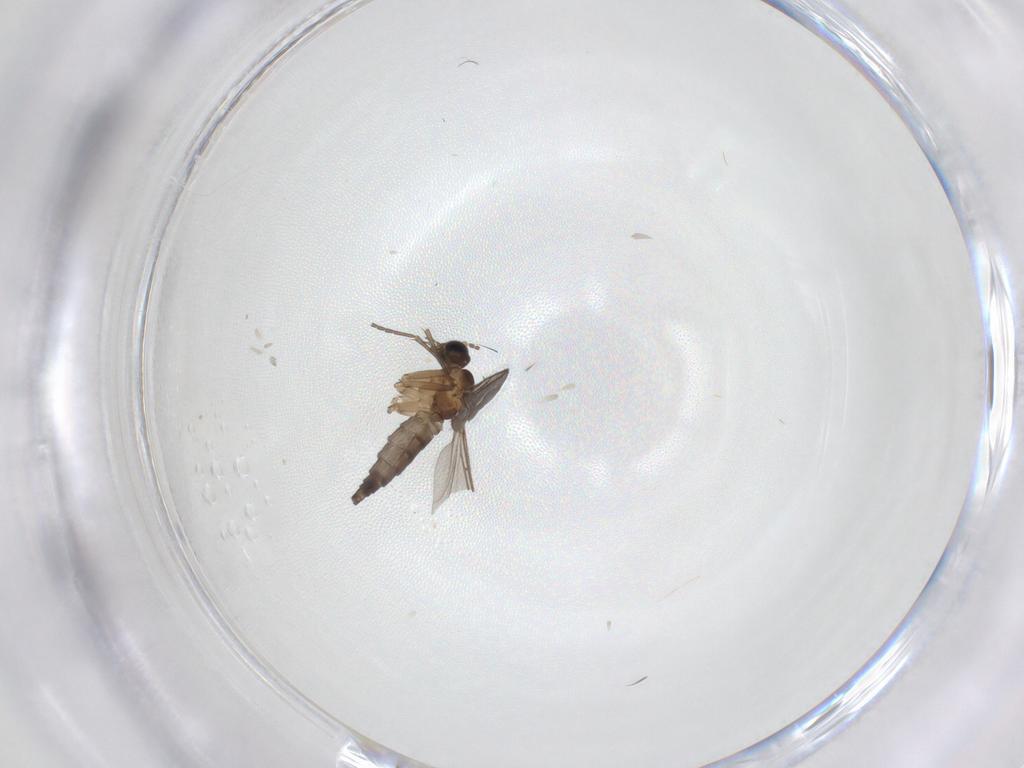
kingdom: Animalia
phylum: Arthropoda
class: Insecta
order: Diptera
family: Sciaridae
